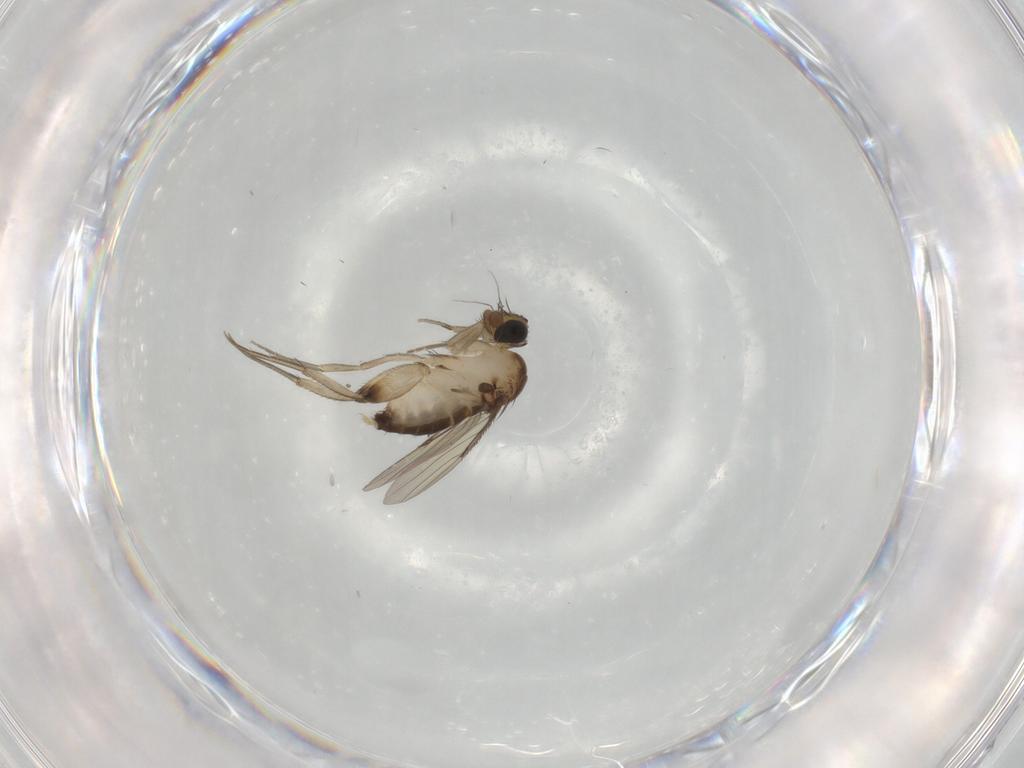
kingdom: Animalia
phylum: Arthropoda
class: Insecta
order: Diptera
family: Phoridae
